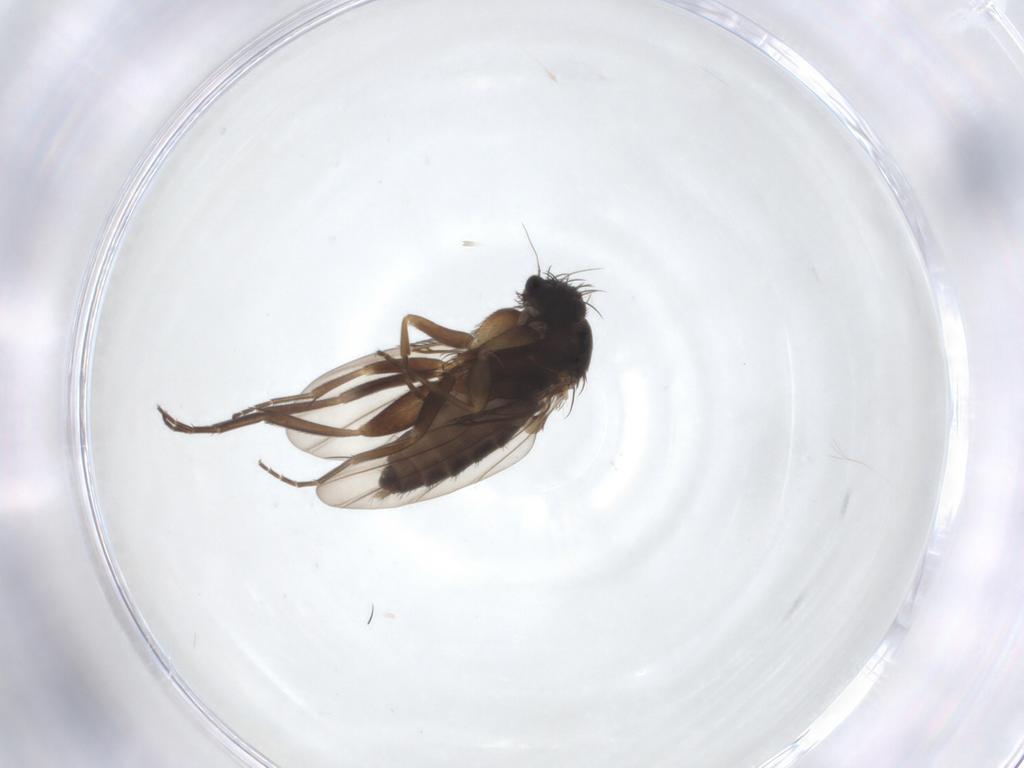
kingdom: Animalia
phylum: Arthropoda
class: Insecta
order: Diptera
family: Phoridae
